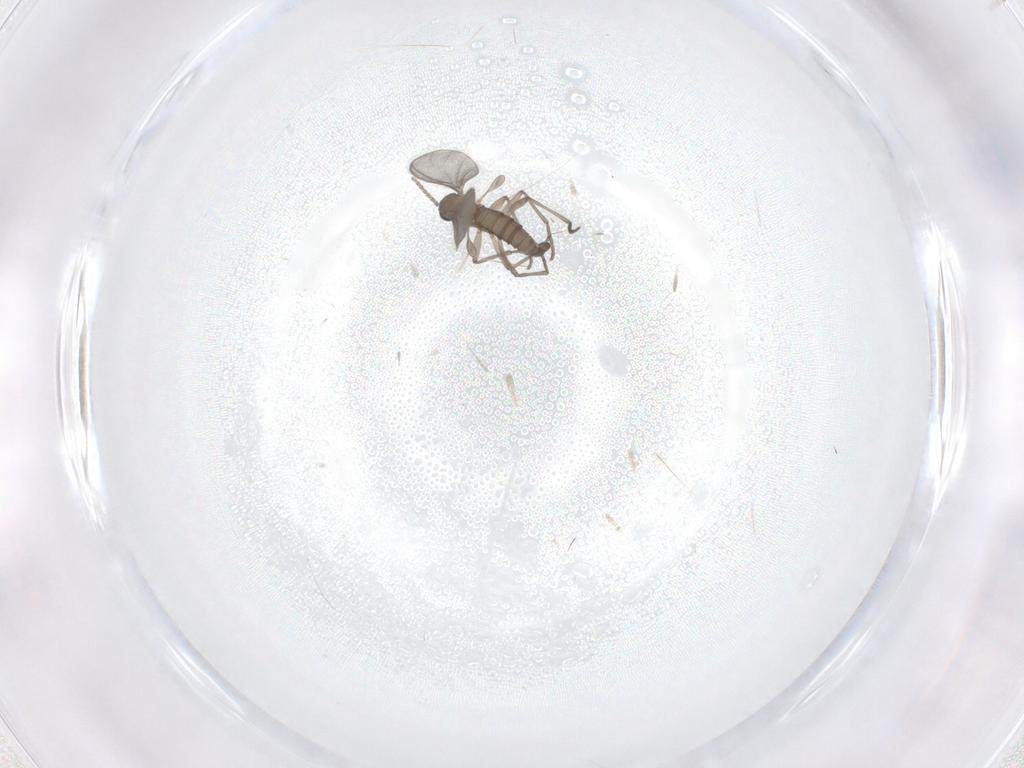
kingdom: Animalia
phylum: Arthropoda
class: Insecta
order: Diptera
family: Sciaridae
